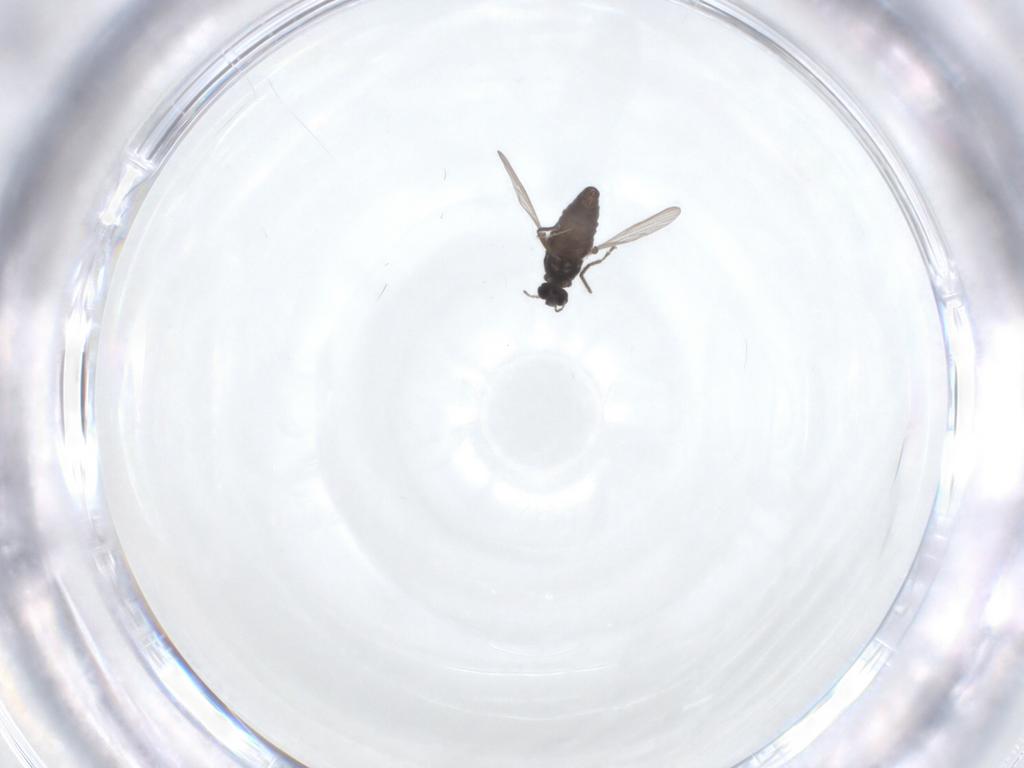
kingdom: Animalia
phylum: Arthropoda
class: Insecta
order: Diptera
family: Chironomidae
